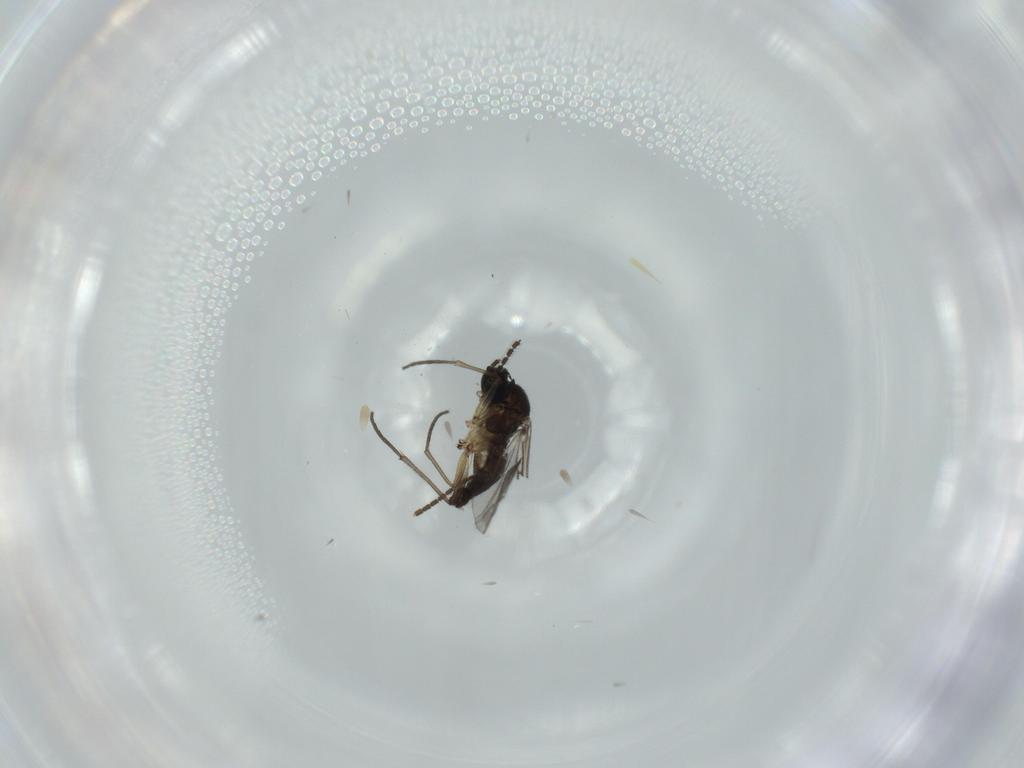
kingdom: Animalia
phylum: Arthropoda
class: Insecta
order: Diptera
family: Sciaridae
